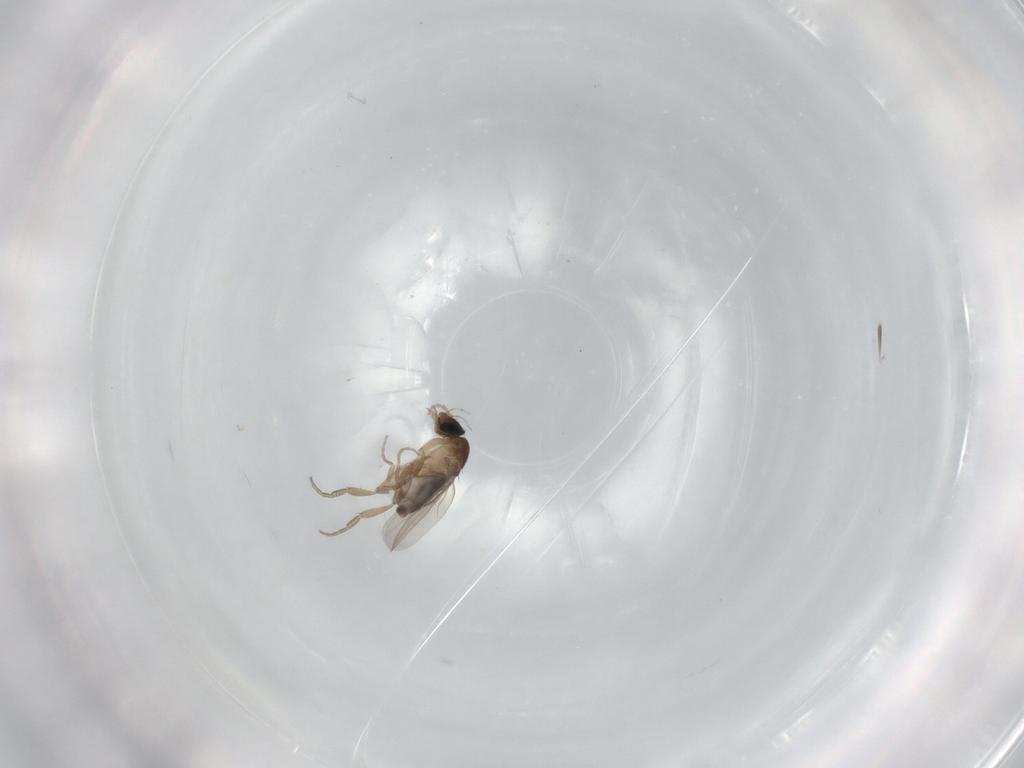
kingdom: Animalia
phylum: Arthropoda
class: Insecta
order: Diptera
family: Phoridae
